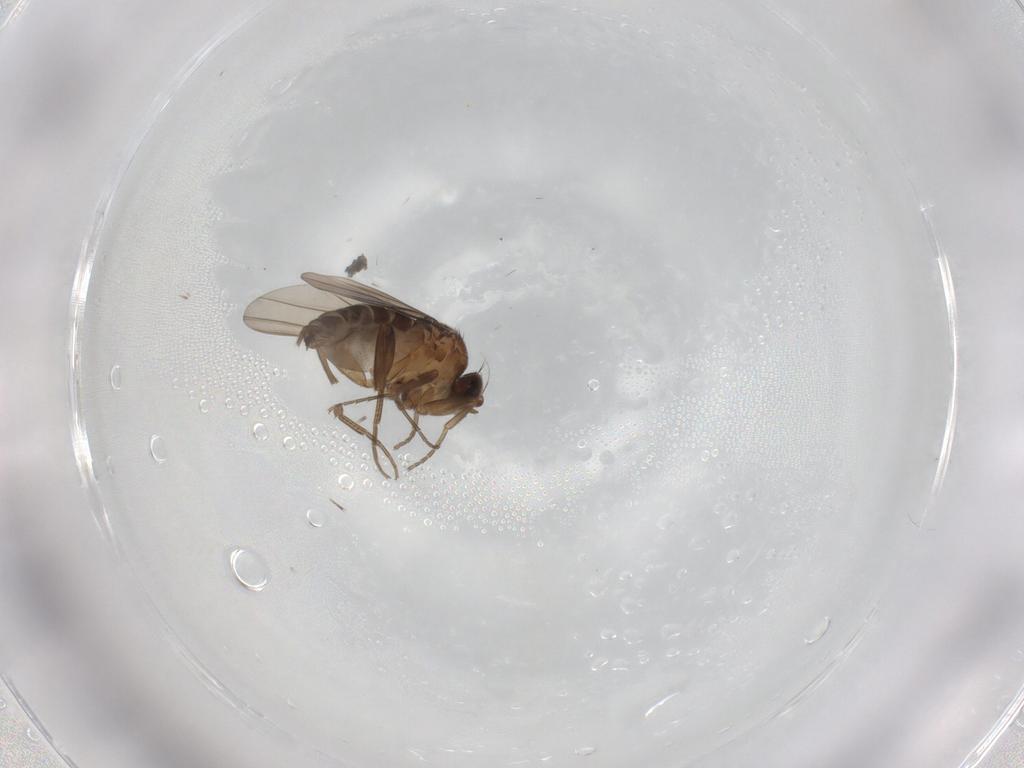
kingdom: Animalia
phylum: Arthropoda
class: Insecta
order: Diptera
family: Phoridae
